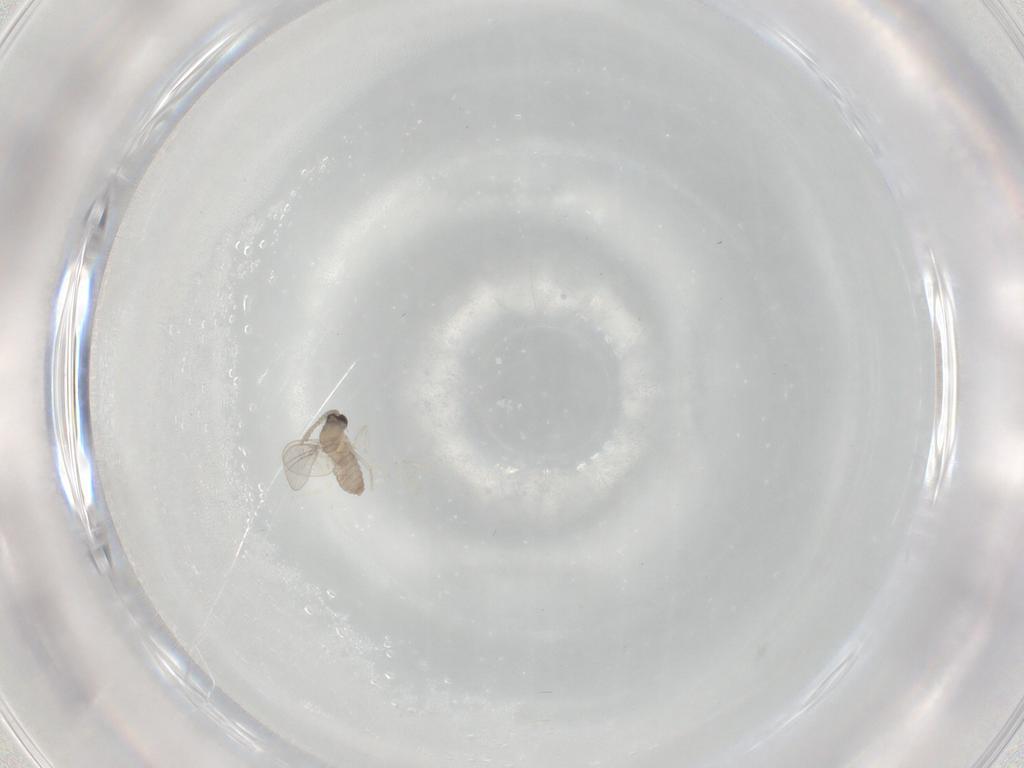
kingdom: Animalia
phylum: Arthropoda
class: Insecta
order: Diptera
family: Cecidomyiidae
